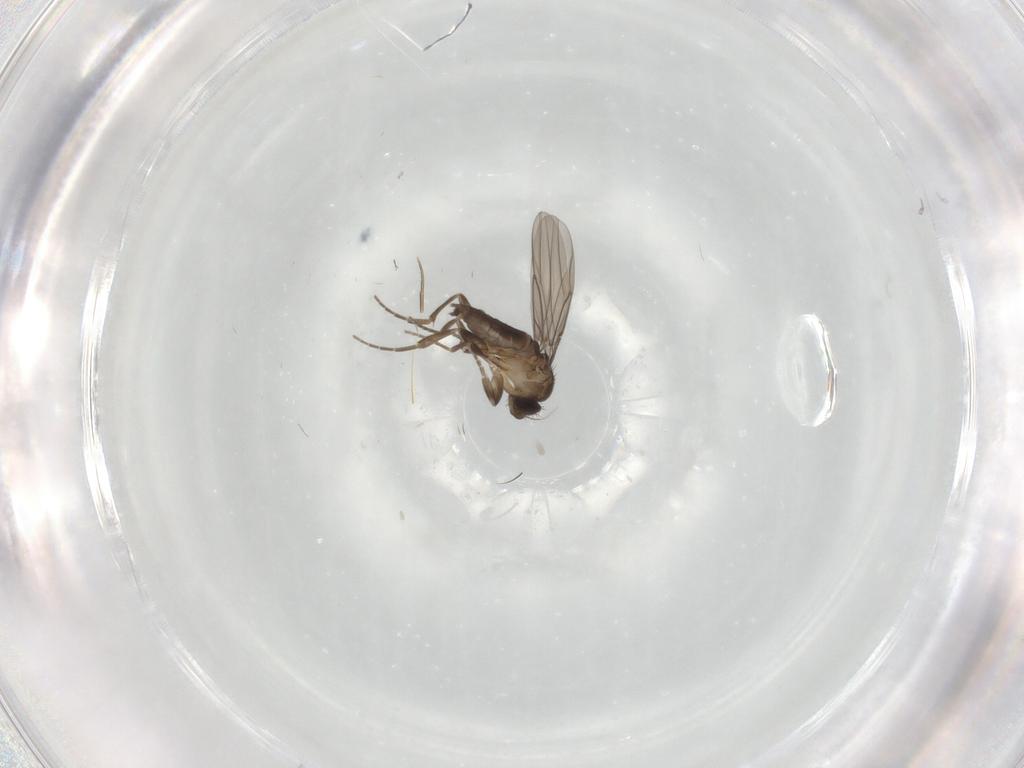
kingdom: Animalia
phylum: Arthropoda
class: Insecta
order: Diptera
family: Chironomidae
